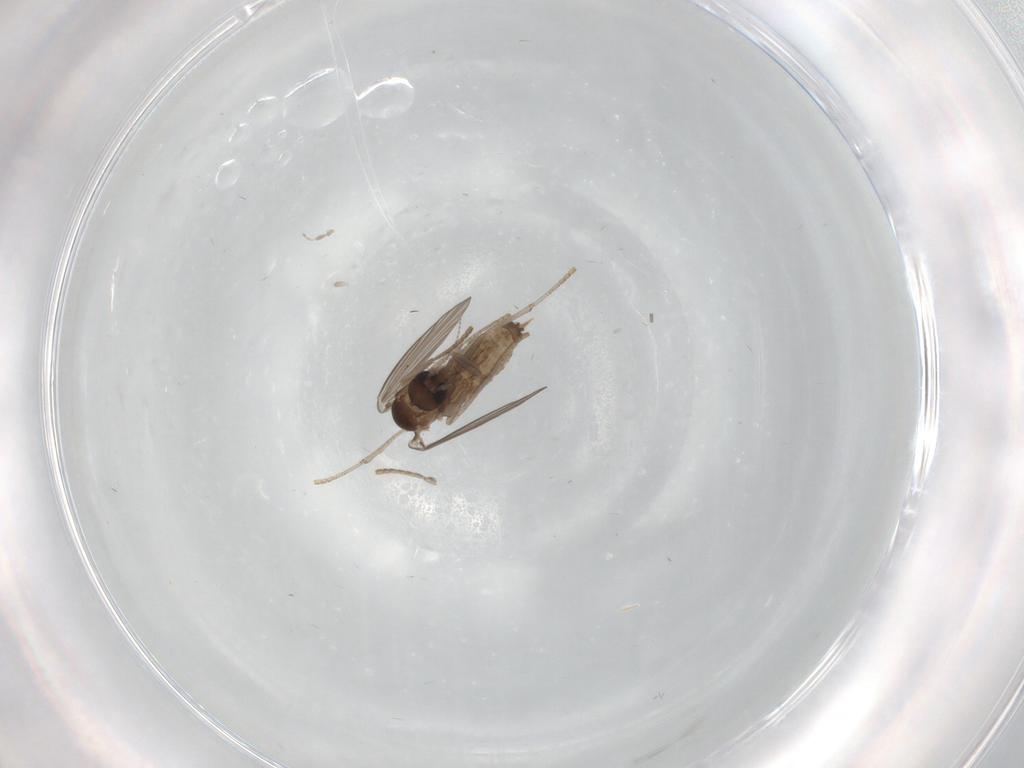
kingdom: Animalia
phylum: Arthropoda
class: Insecta
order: Diptera
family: Psychodidae
